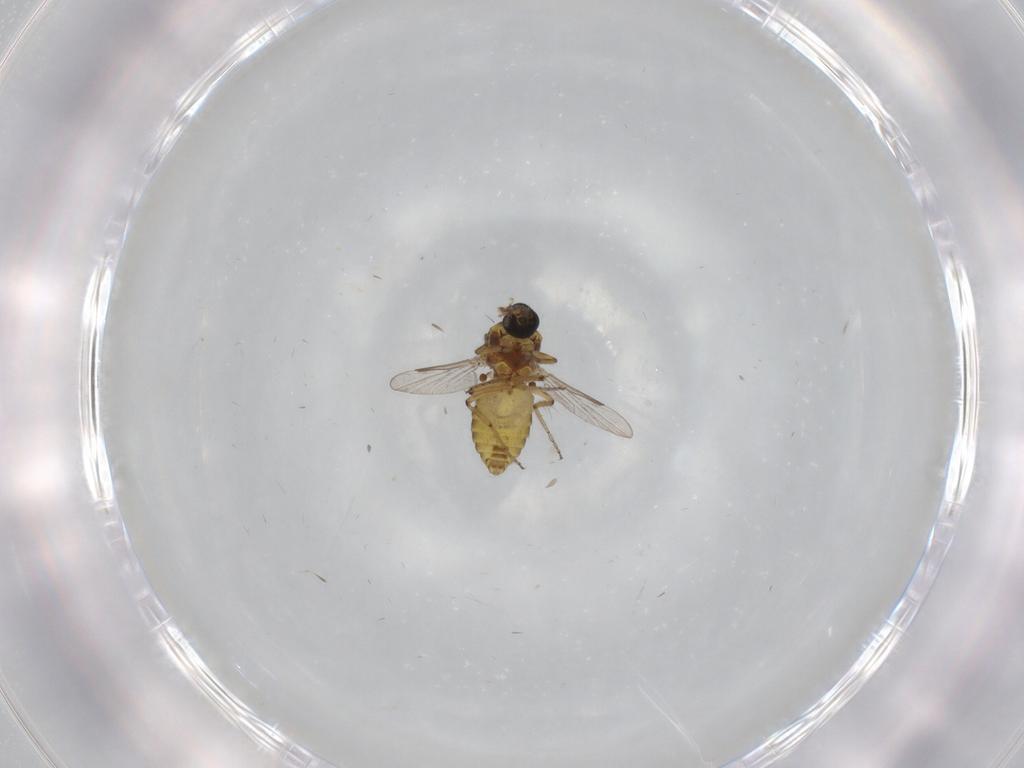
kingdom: Animalia
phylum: Arthropoda
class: Insecta
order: Diptera
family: Ceratopogonidae
